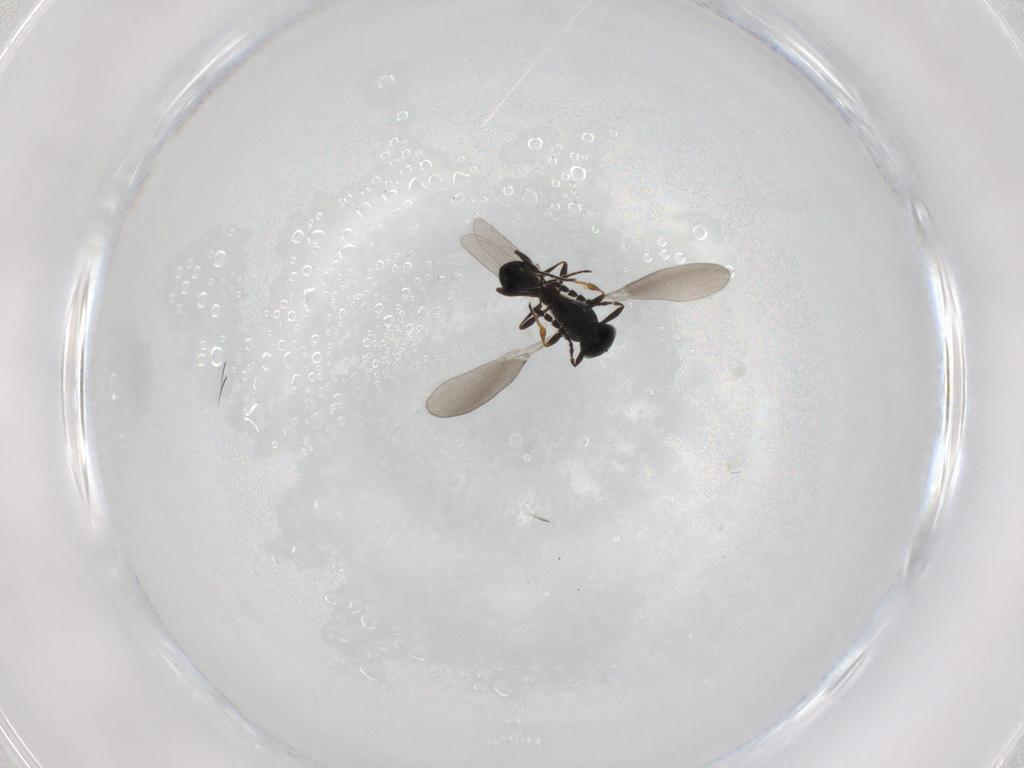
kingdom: Animalia
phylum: Arthropoda
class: Insecta
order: Hymenoptera
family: Platygastridae
